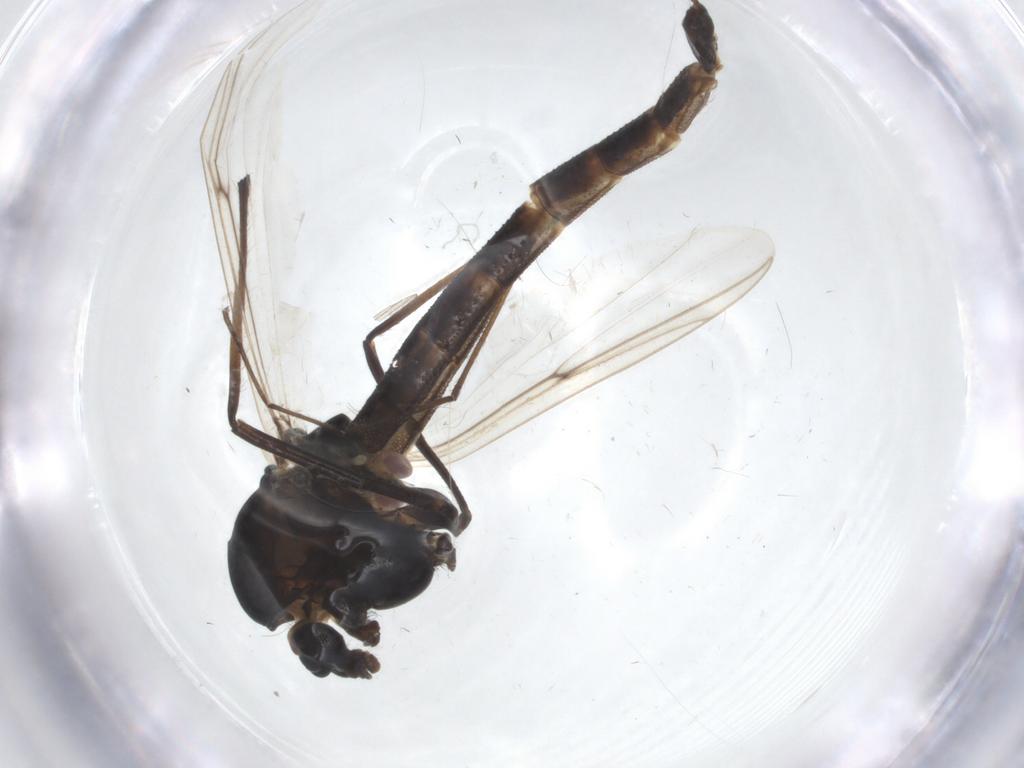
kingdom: Animalia
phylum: Arthropoda
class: Insecta
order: Diptera
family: Chironomidae
